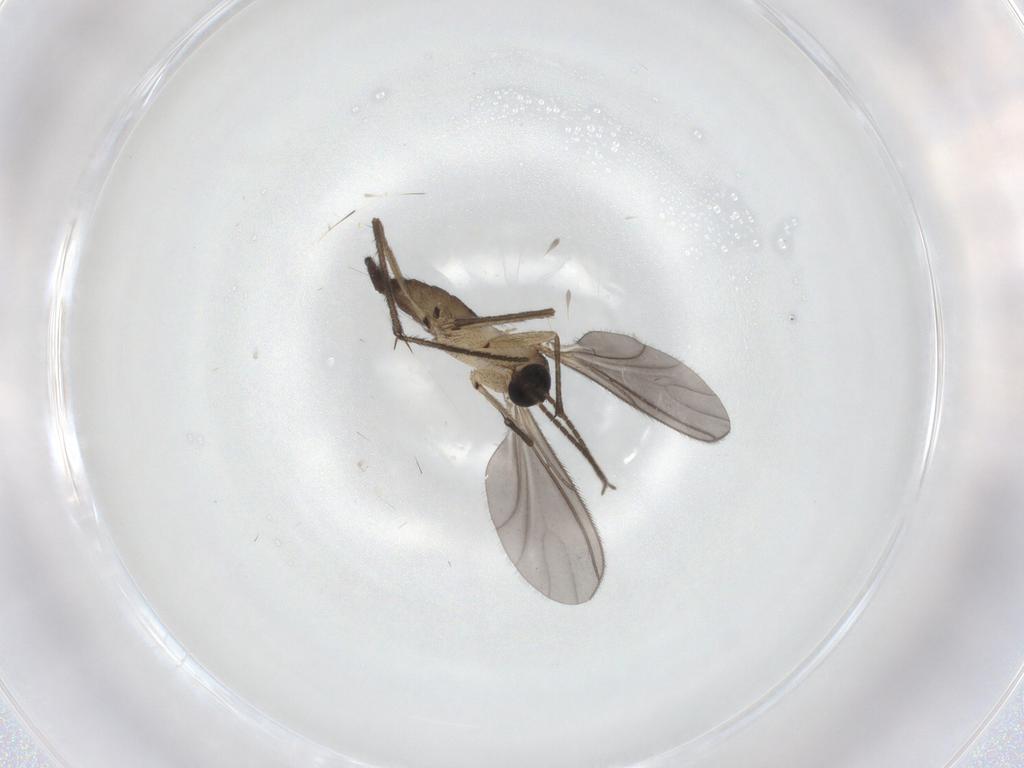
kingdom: Animalia
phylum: Arthropoda
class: Insecta
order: Diptera
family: Sciaridae
